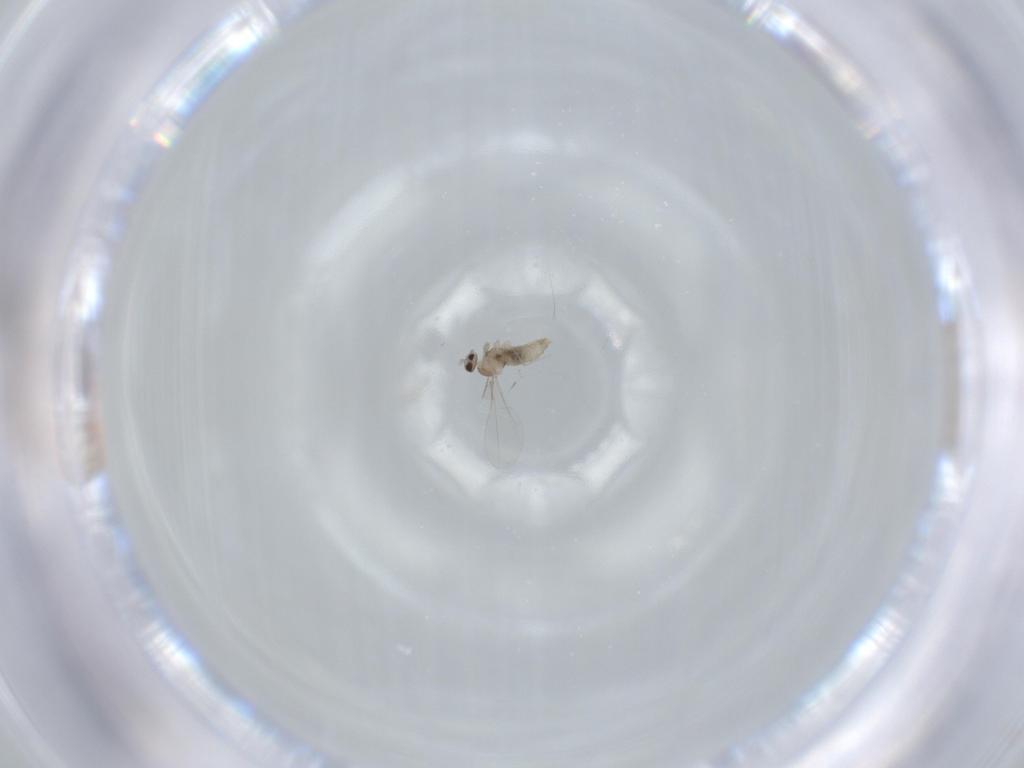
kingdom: Animalia
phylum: Arthropoda
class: Insecta
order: Diptera
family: Cecidomyiidae
